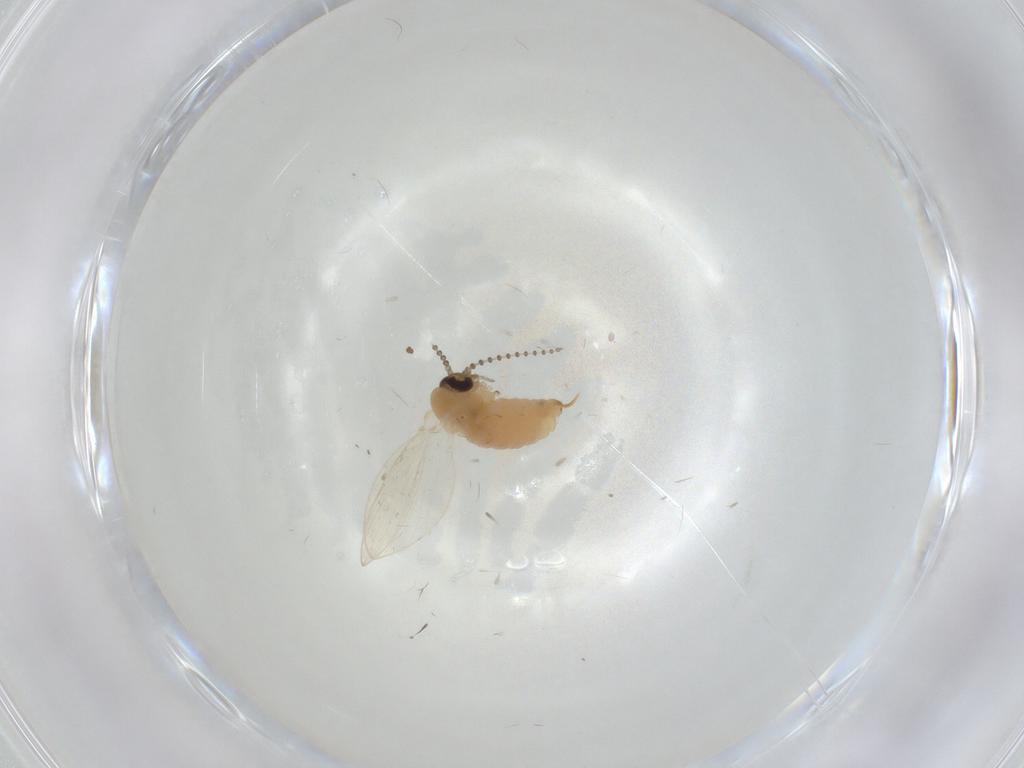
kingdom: Animalia
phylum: Arthropoda
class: Insecta
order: Diptera
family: Psychodidae
